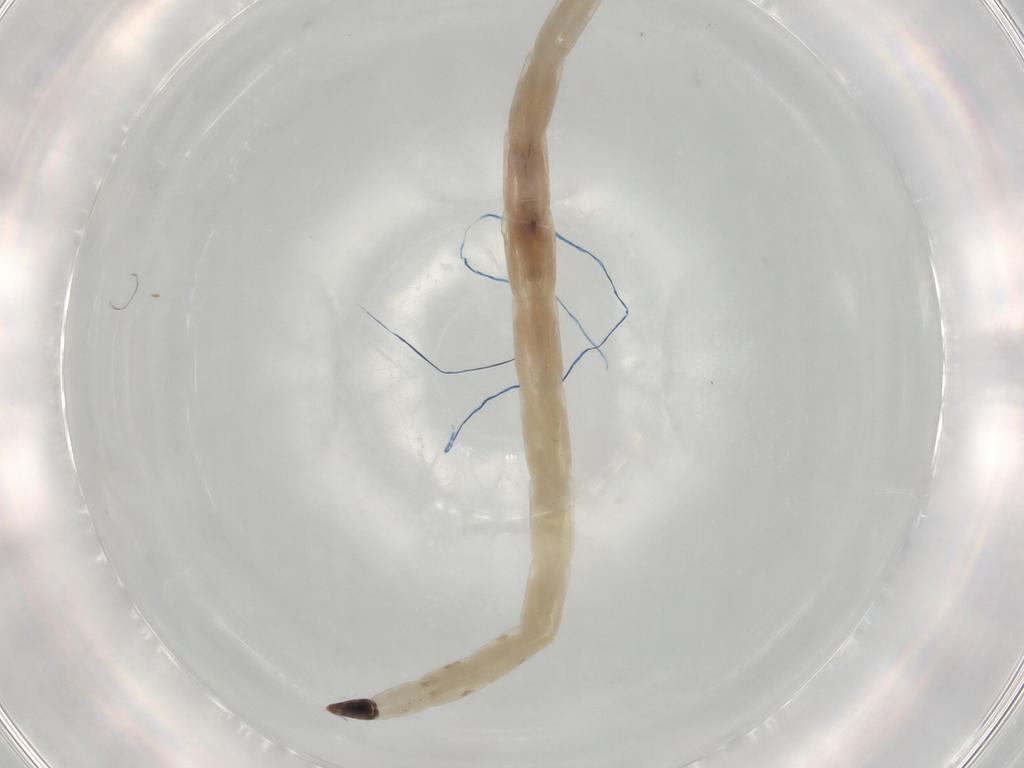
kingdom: Animalia
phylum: Arthropoda
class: Insecta
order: Diptera
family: Ceratopogonidae
